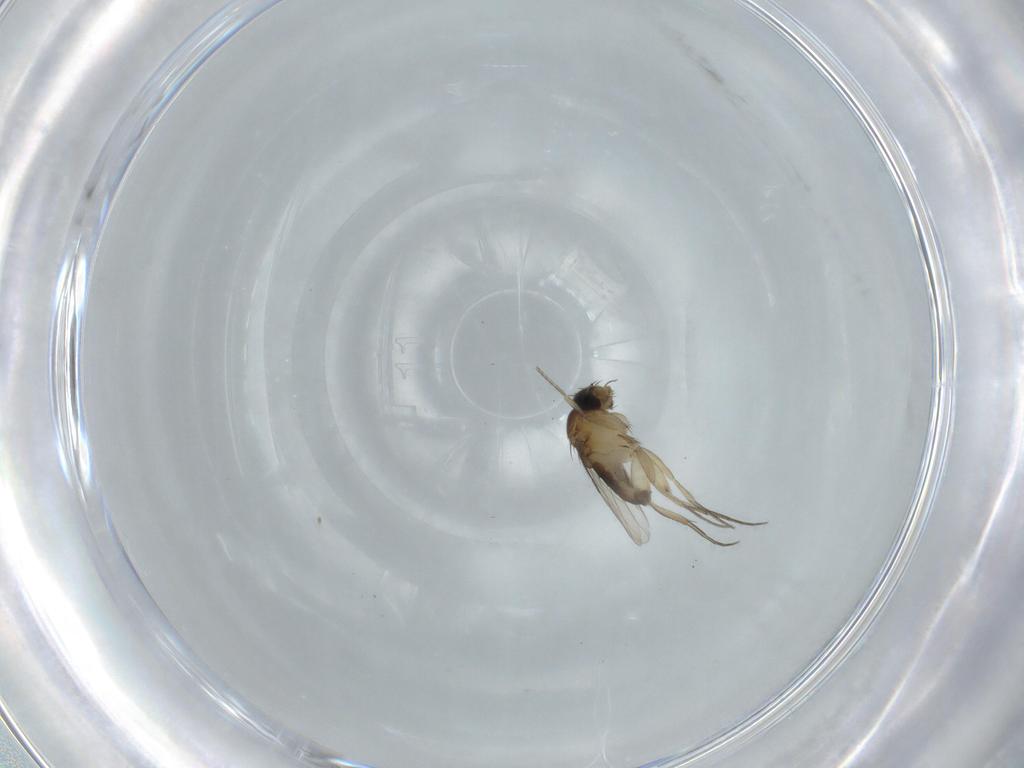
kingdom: Animalia
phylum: Arthropoda
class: Insecta
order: Diptera
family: Phoridae
